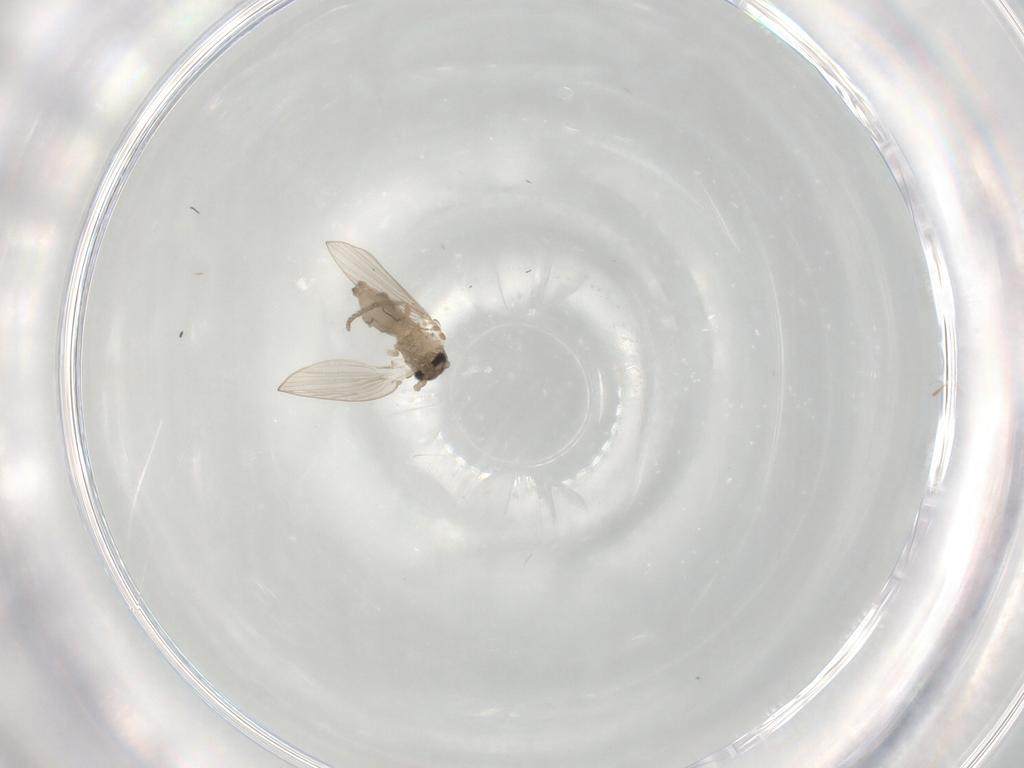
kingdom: Animalia
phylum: Arthropoda
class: Insecta
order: Diptera
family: Psychodidae
